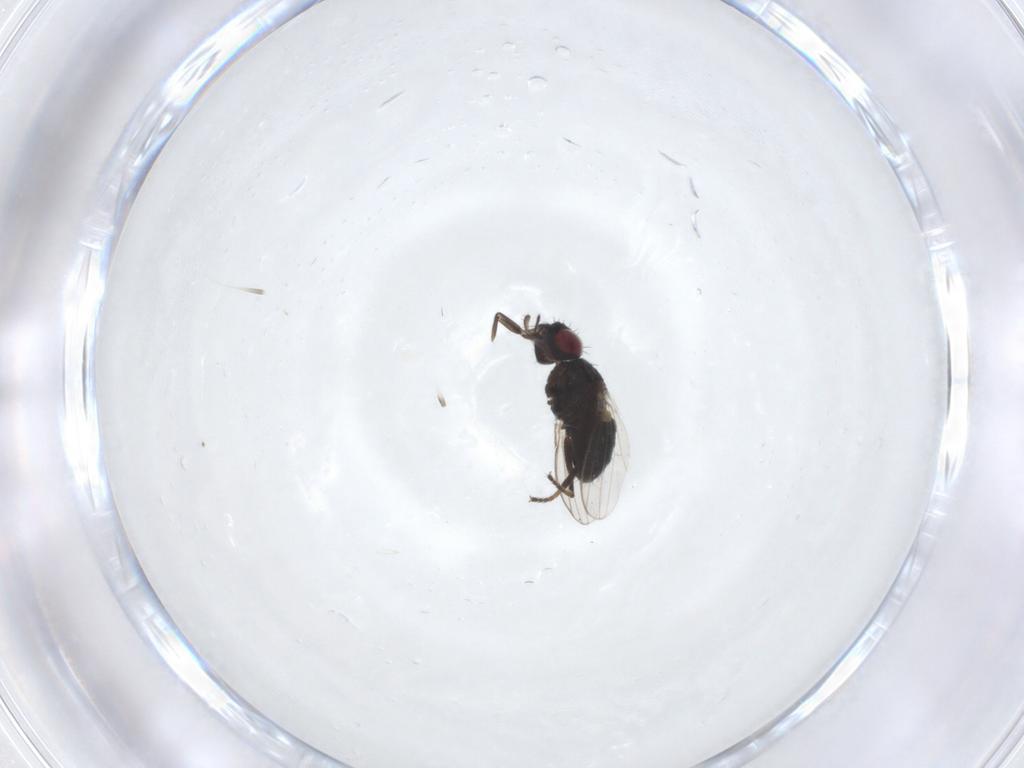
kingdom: Animalia
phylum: Arthropoda
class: Insecta
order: Diptera
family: Milichiidae
